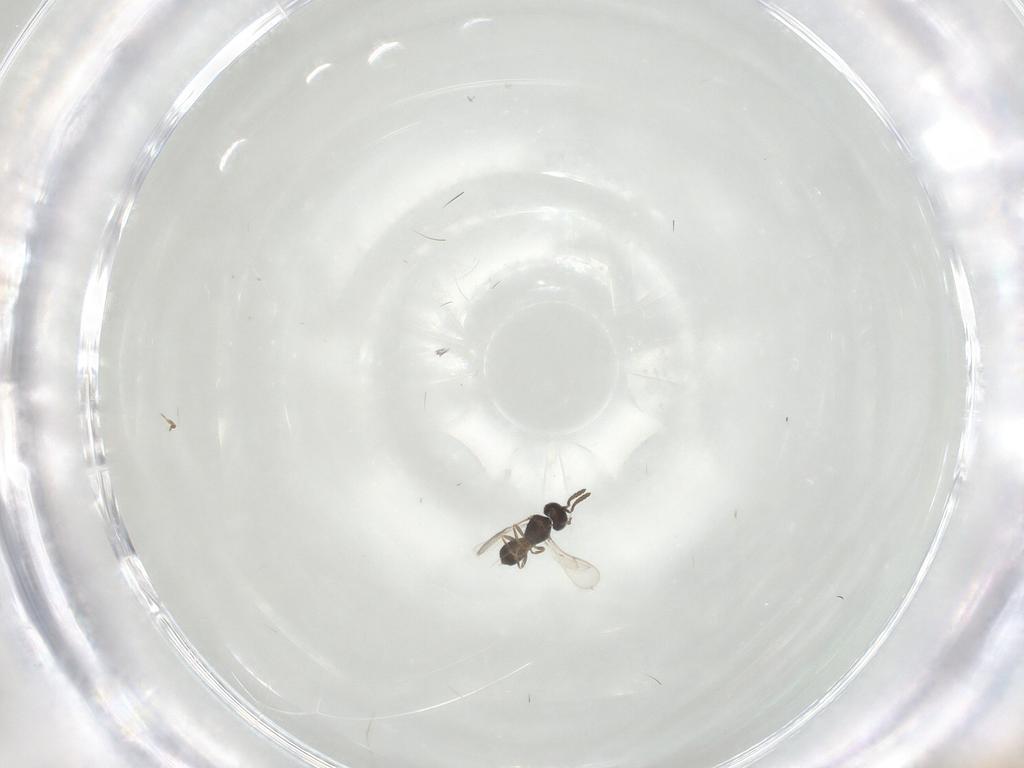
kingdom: Animalia
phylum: Arthropoda
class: Insecta
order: Hymenoptera
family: Scelionidae
